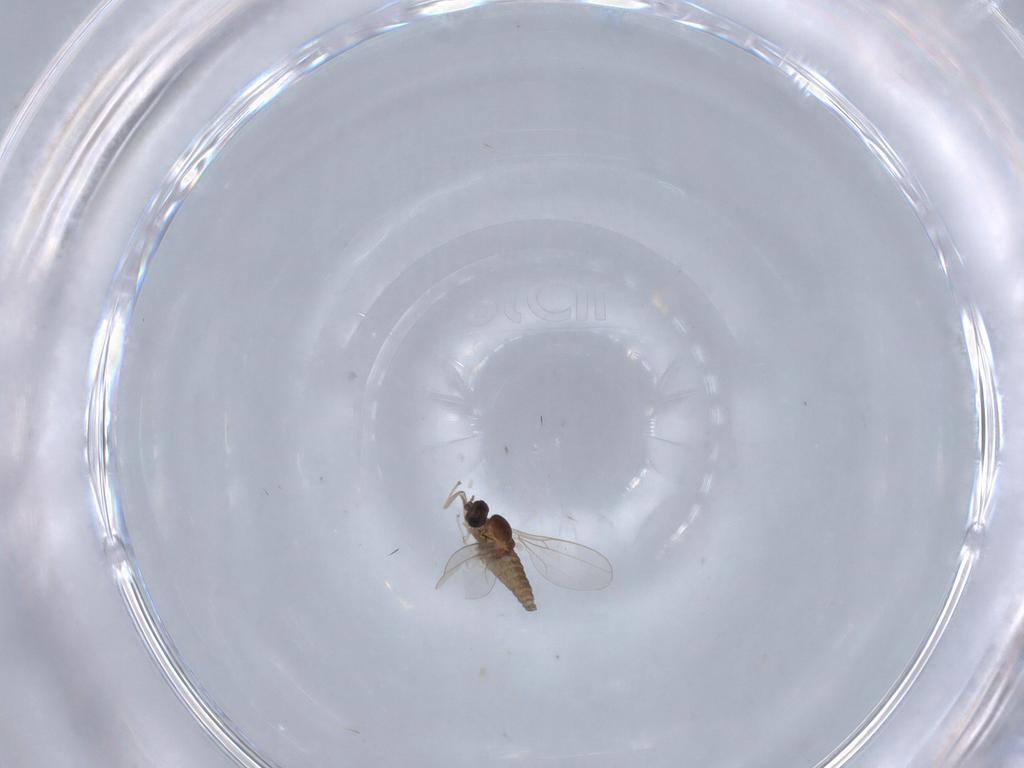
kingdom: Animalia
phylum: Arthropoda
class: Insecta
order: Diptera
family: Cecidomyiidae
